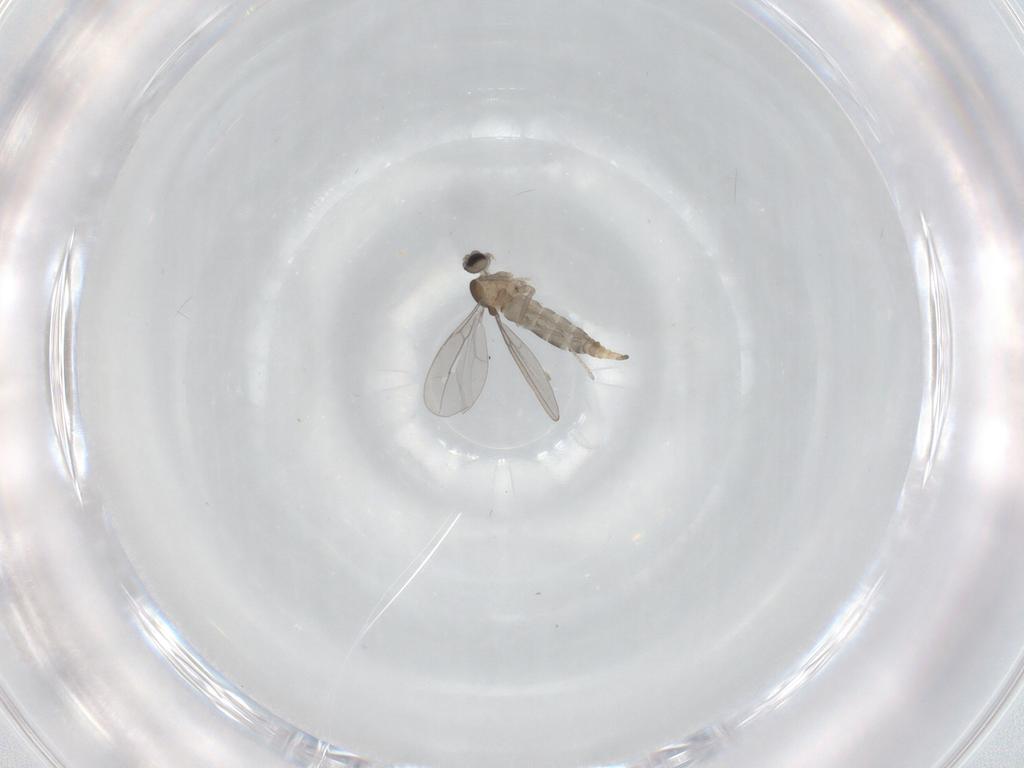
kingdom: Animalia
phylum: Arthropoda
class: Insecta
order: Diptera
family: Cecidomyiidae
